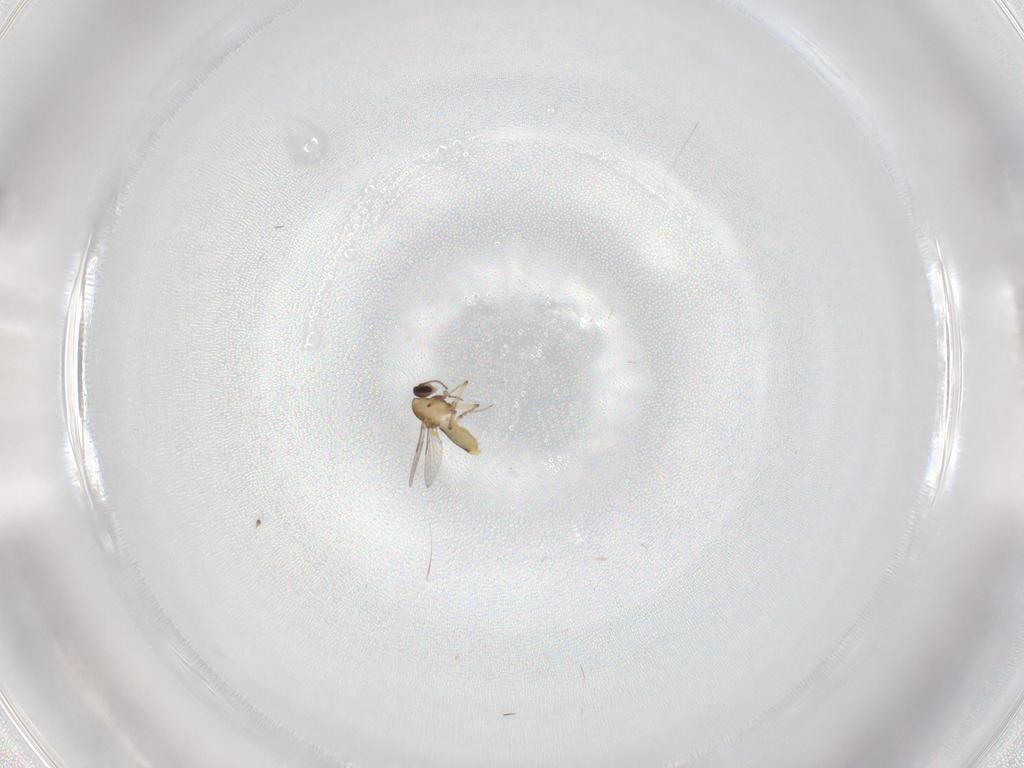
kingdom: Animalia
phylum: Arthropoda
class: Insecta
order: Diptera
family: Ceratopogonidae
